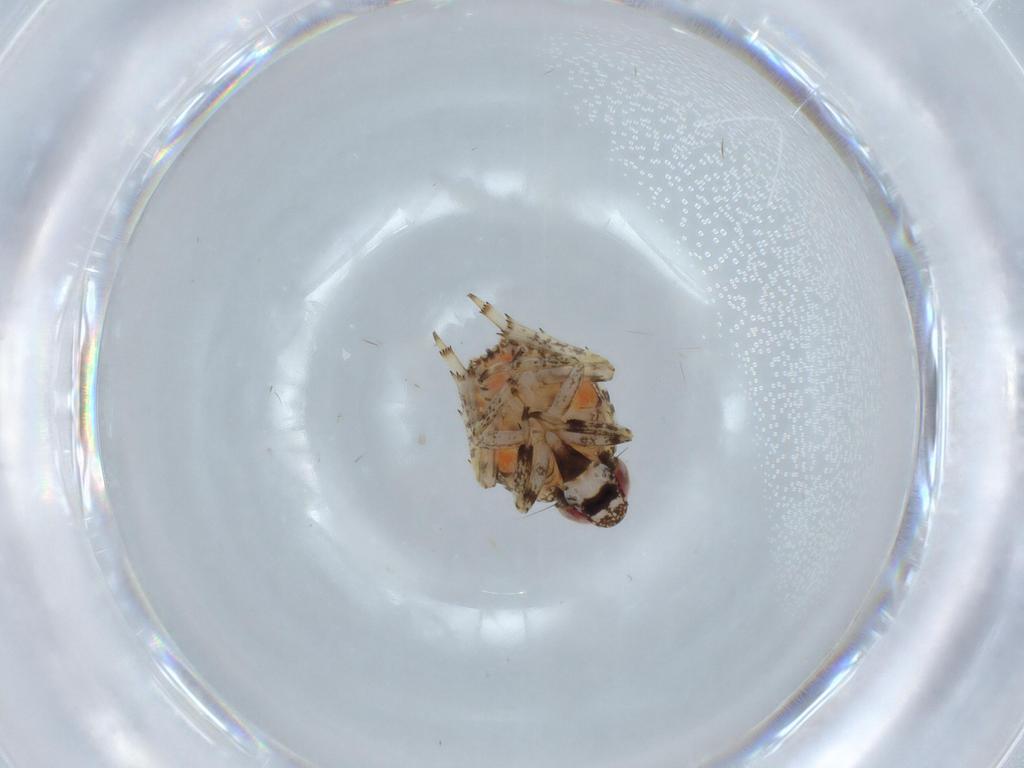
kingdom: Animalia
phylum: Arthropoda
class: Insecta
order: Hemiptera
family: Issidae
